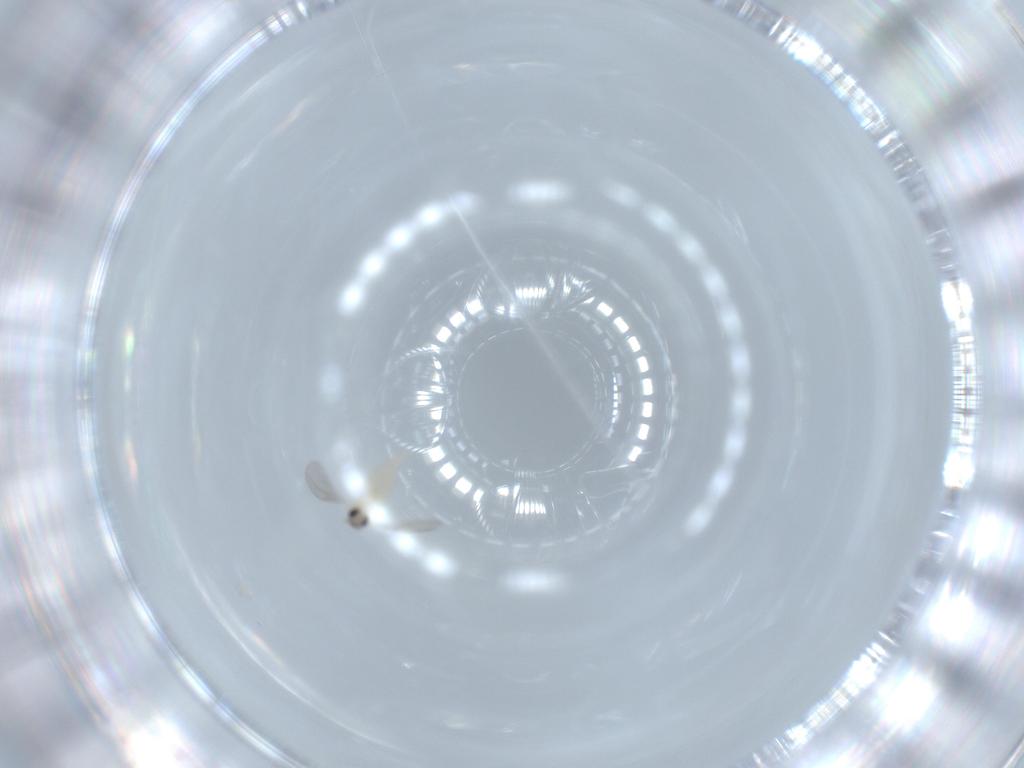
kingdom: Animalia
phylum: Arthropoda
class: Insecta
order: Diptera
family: Cecidomyiidae
